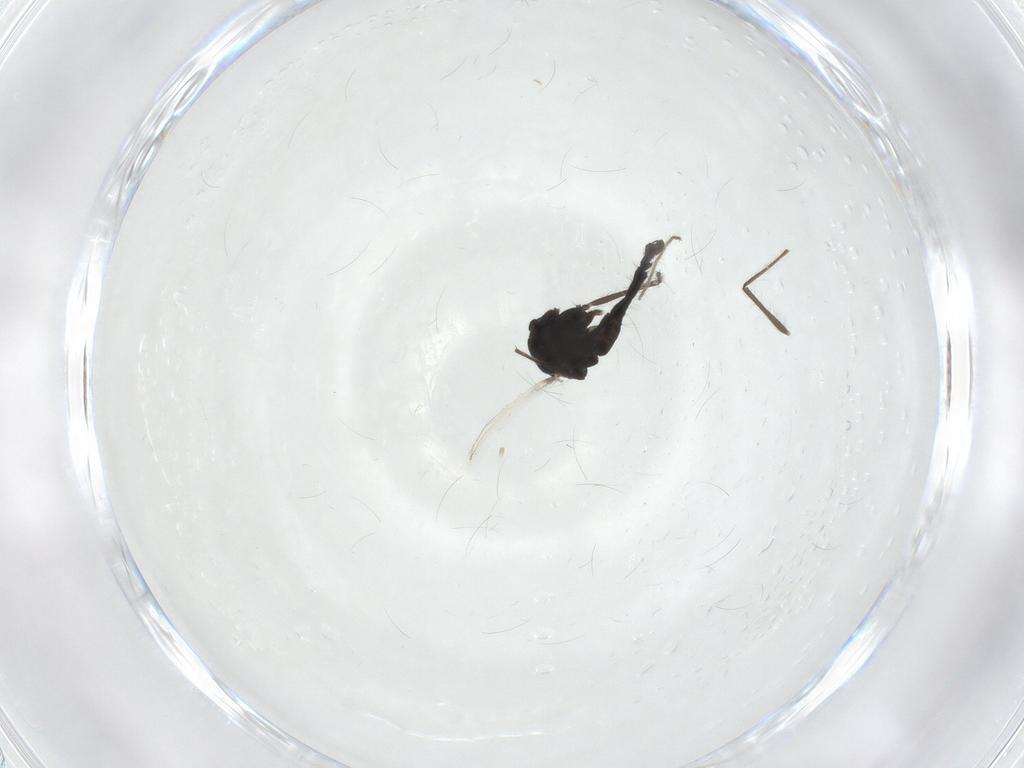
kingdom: Animalia
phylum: Arthropoda
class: Insecta
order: Diptera
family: Chironomidae
